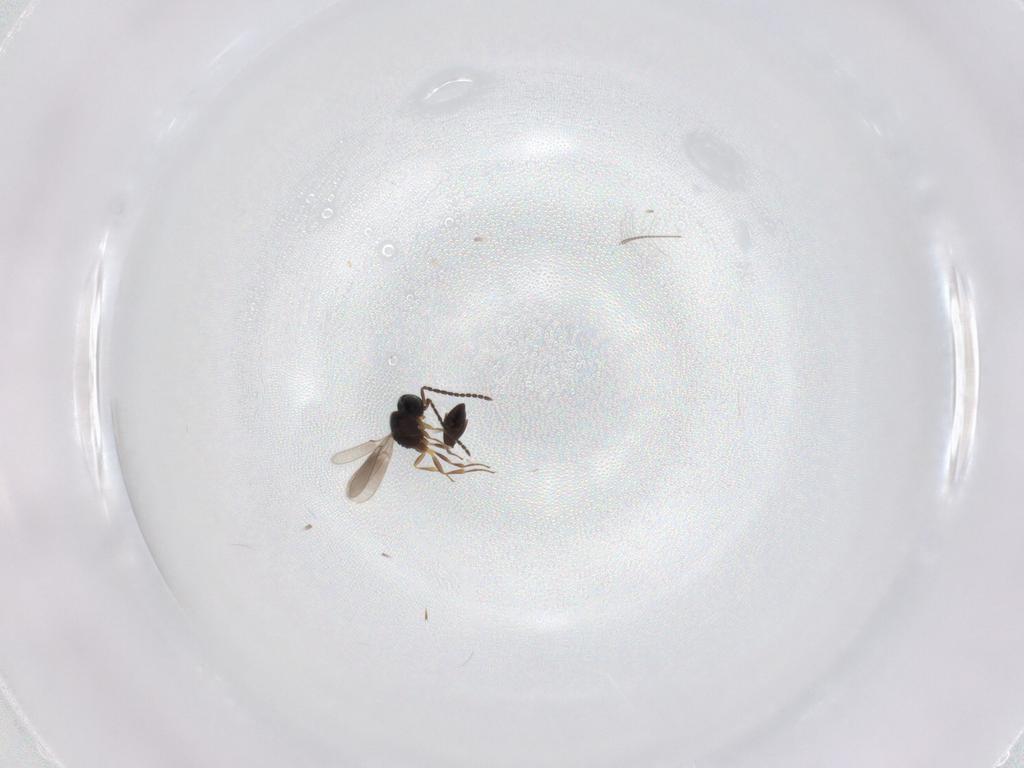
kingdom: Animalia
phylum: Arthropoda
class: Insecta
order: Hymenoptera
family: Scelionidae
